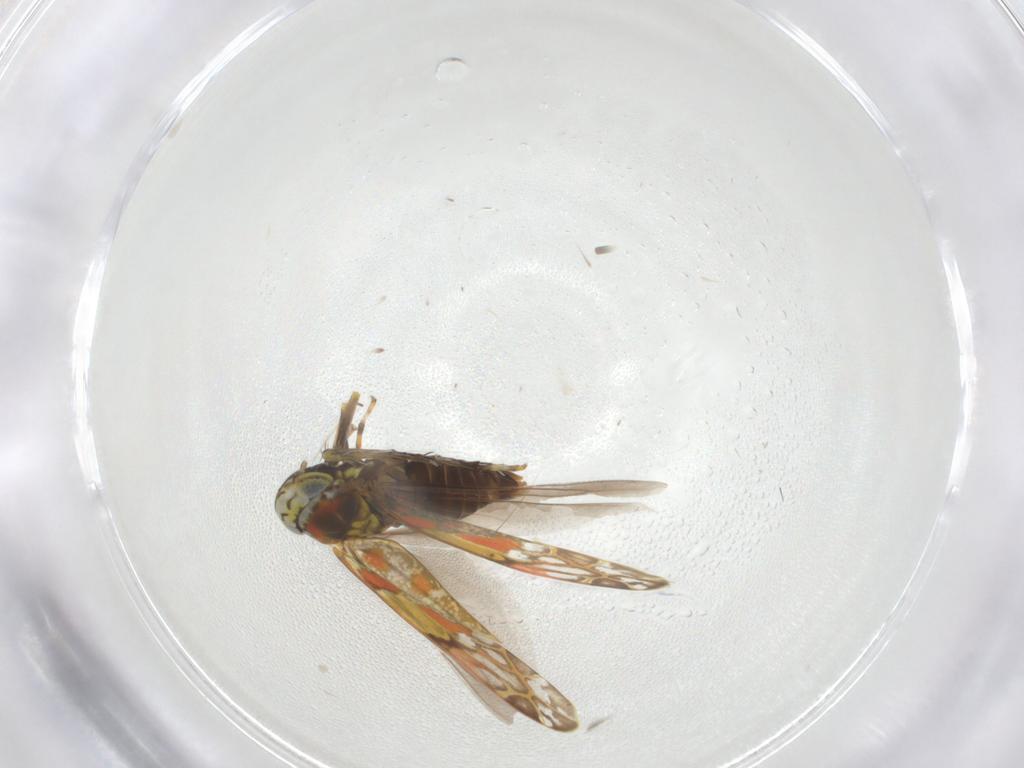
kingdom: Animalia
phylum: Arthropoda
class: Insecta
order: Hemiptera
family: Cicadellidae
